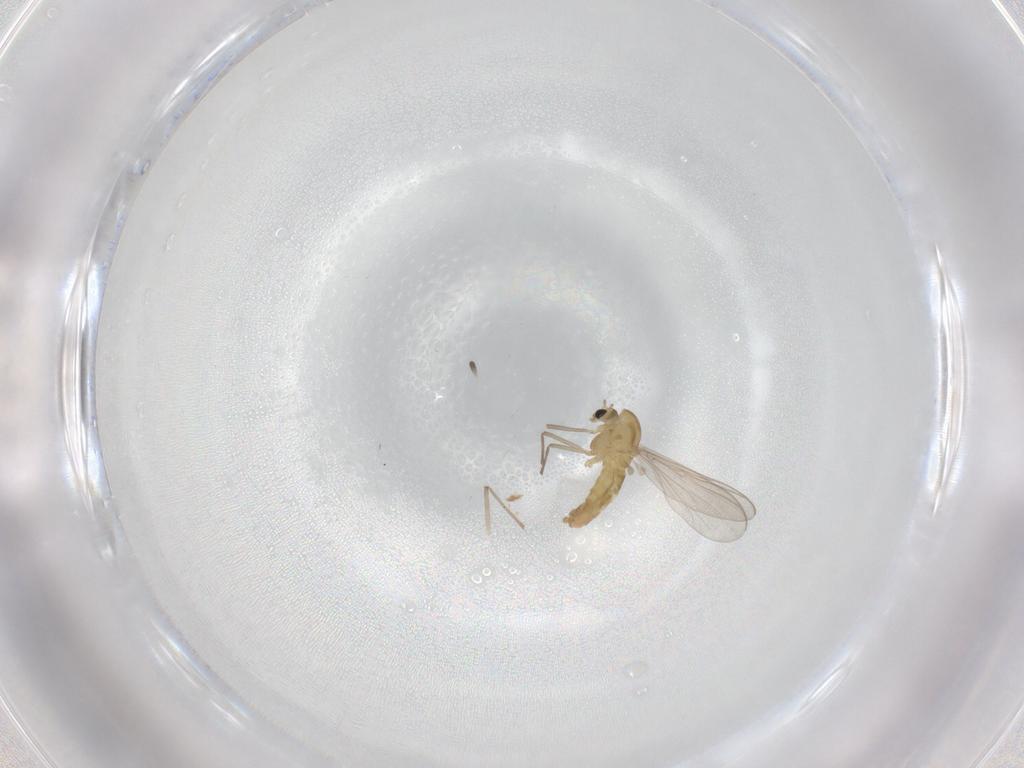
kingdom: Animalia
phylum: Arthropoda
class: Insecta
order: Diptera
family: Chironomidae
